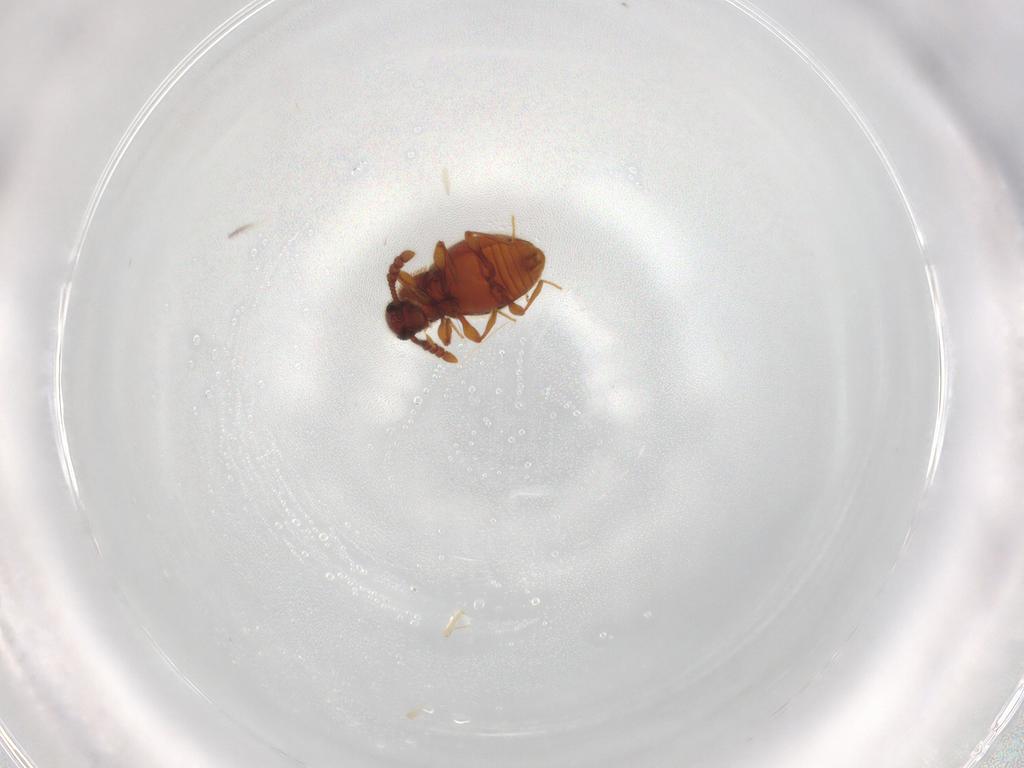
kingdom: Animalia
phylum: Arthropoda
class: Insecta
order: Coleoptera
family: Staphylinidae
